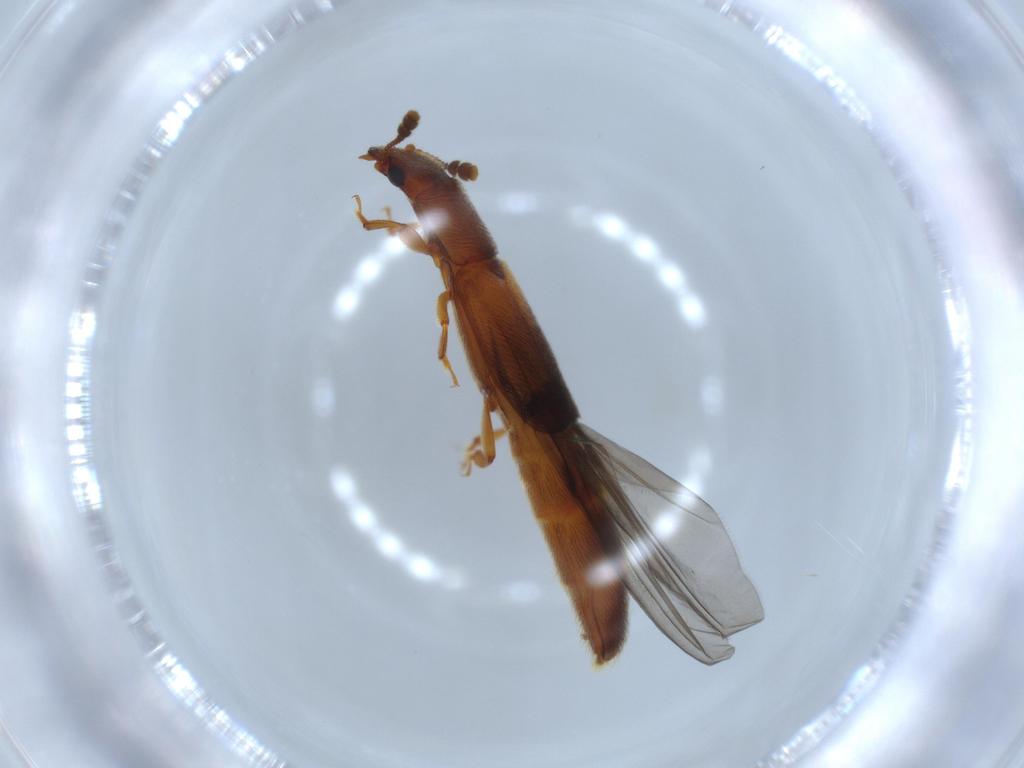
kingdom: Animalia
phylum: Arthropoda
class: Insecta
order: Coleoptera
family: Nitidulidae
